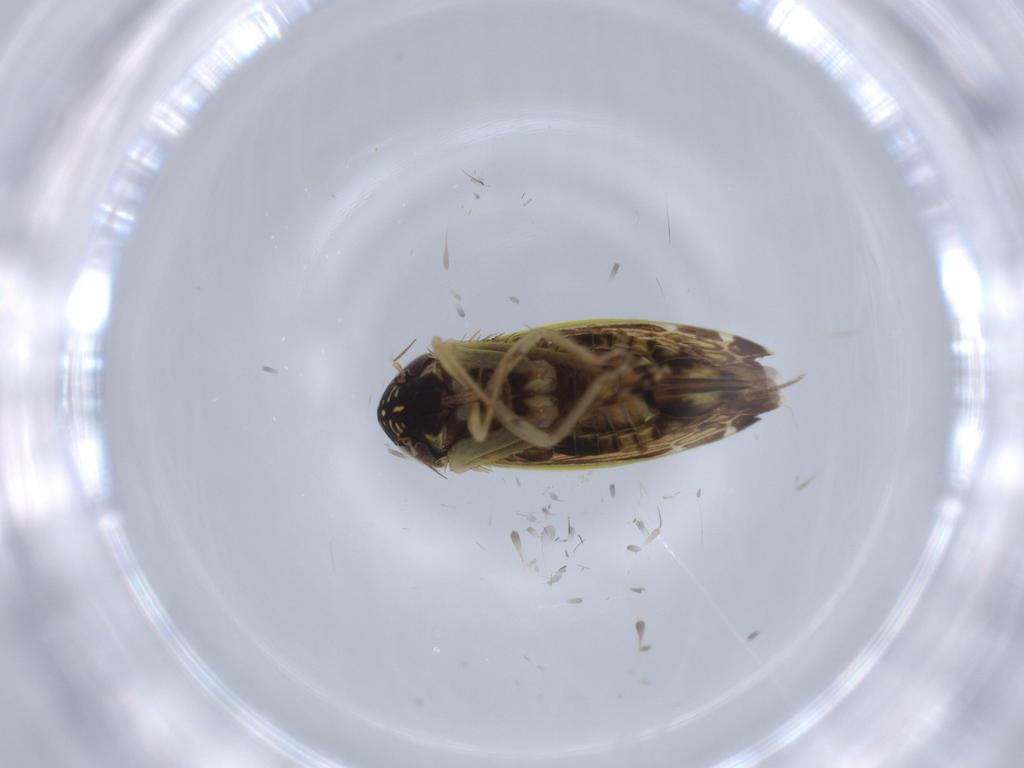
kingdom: Animalia
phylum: Arthropoda
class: Insecta
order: Hemiptera
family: Cicadellidae
